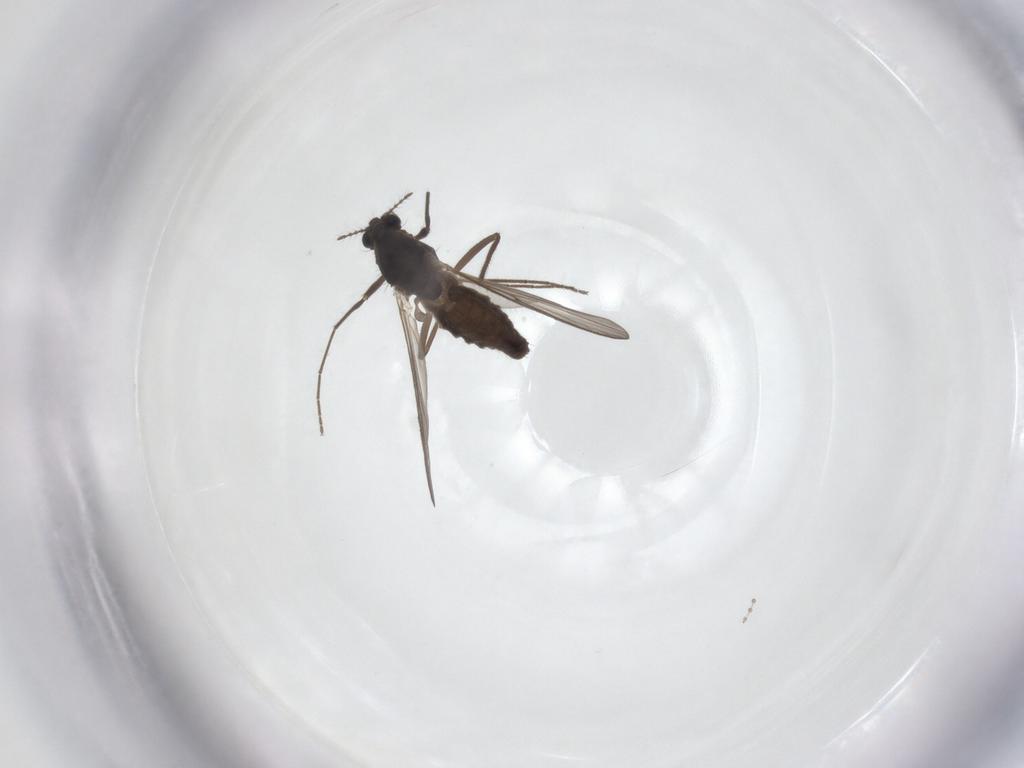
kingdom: Animalia
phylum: Arthropoda
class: Insecta
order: Diptera
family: Chironomidae
